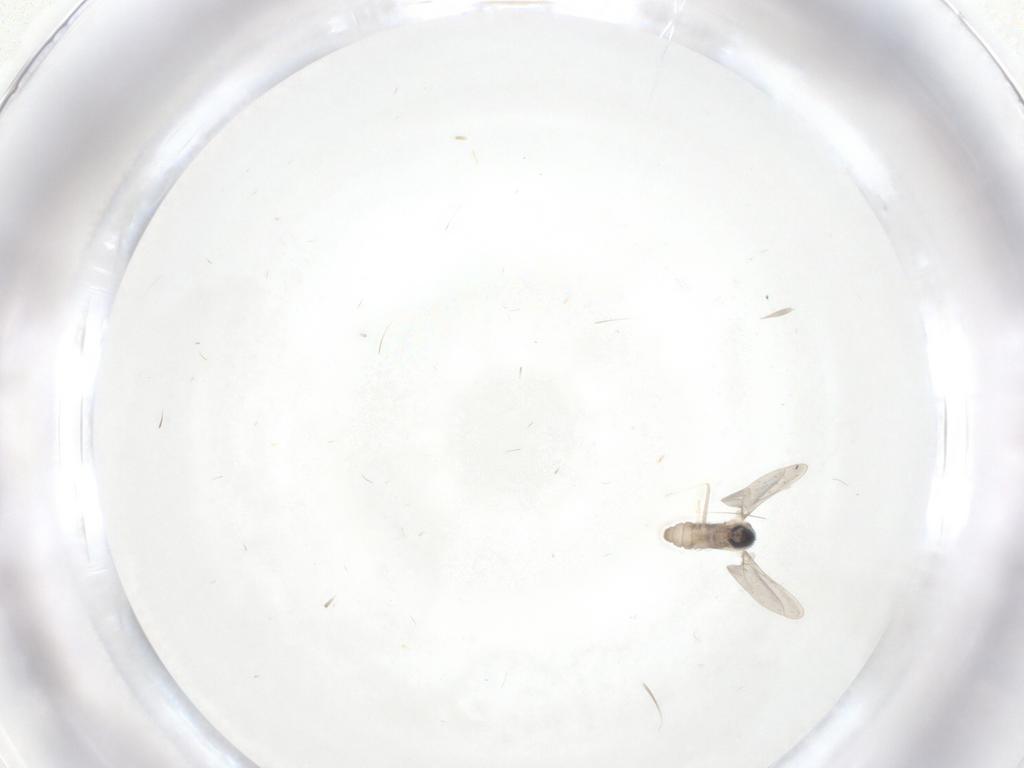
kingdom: Animalia
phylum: Arthropoda
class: Insecta
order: Diptera
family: Cecidomyiidae
